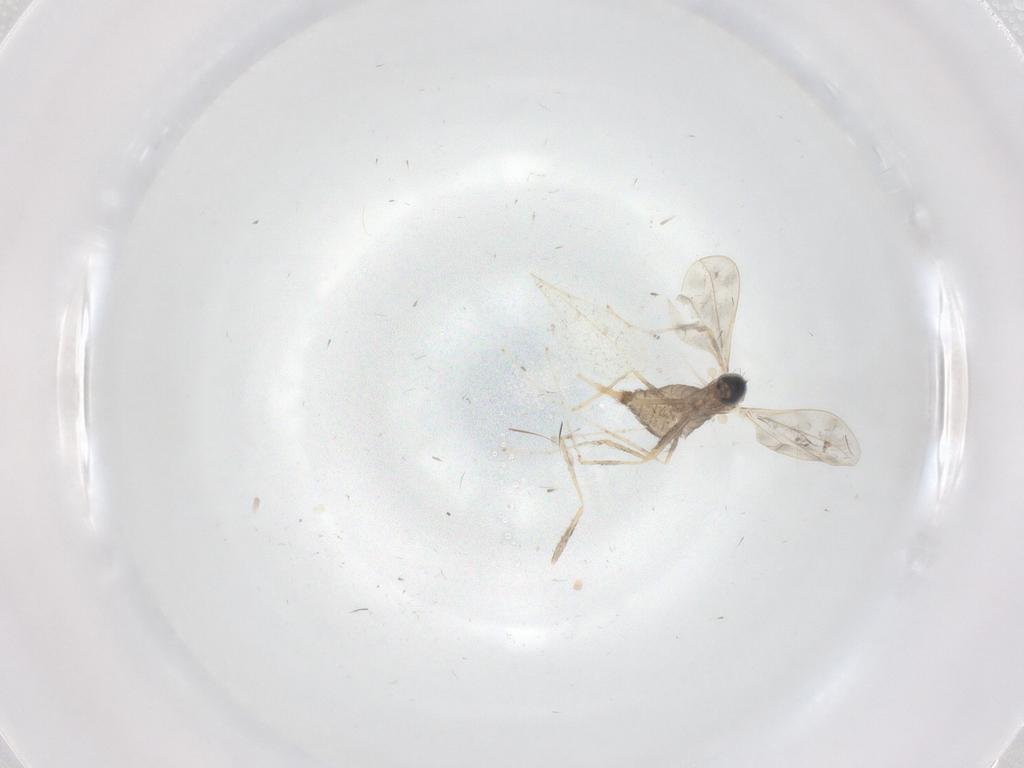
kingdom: Animalia
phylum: Arthropoda
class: Insecta
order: Diptera
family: Cecidomyiidae
